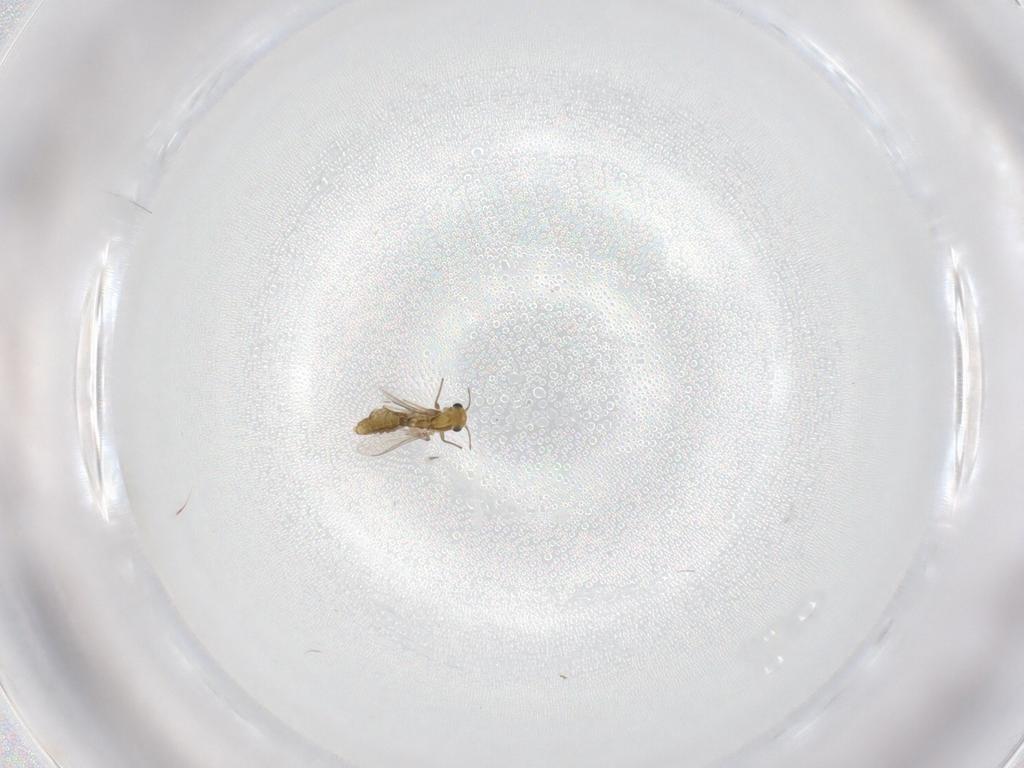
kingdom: Animalia
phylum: Arthropoda
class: Insecta
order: Diptera
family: Chironomidae
